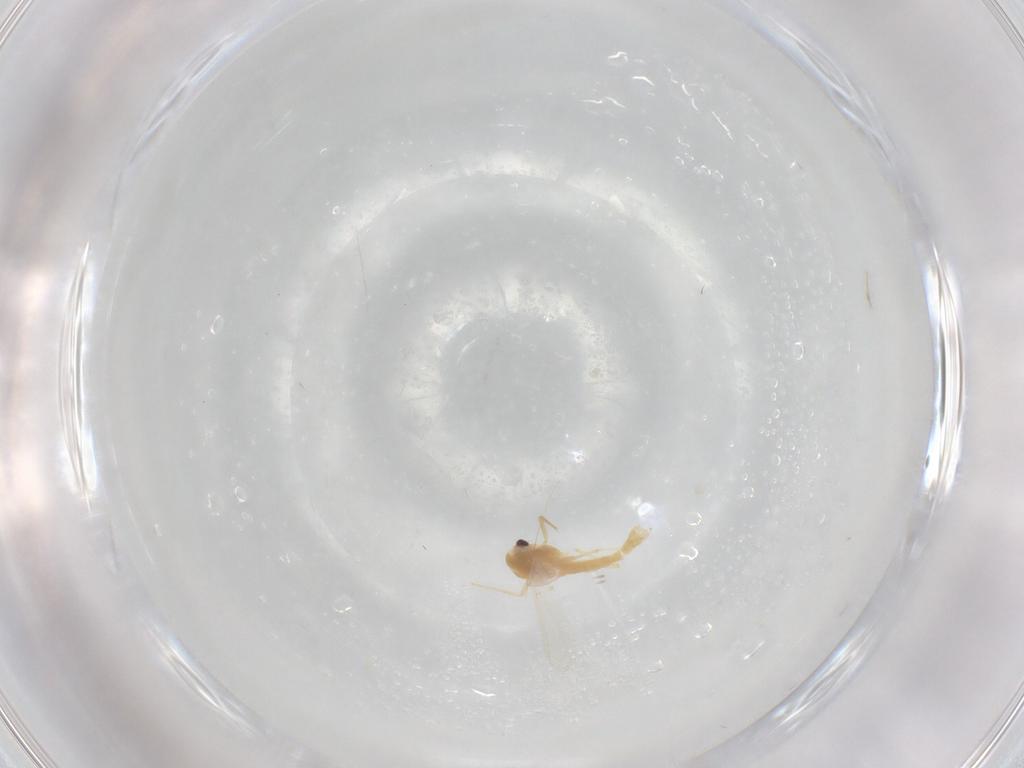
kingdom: Animalia
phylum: Arthropoda
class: Insecta
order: Diptera
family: Chironomidae
